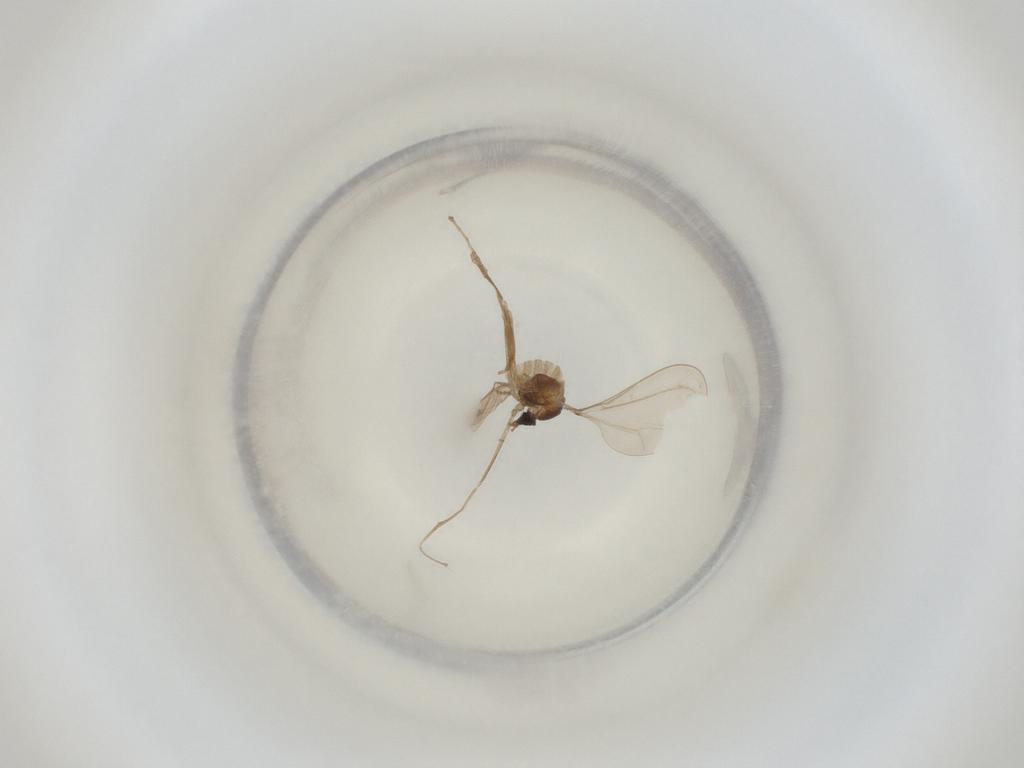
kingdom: Animalia
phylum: Arthropoda
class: Insecta
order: Diptera
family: Cecidomyiidae
